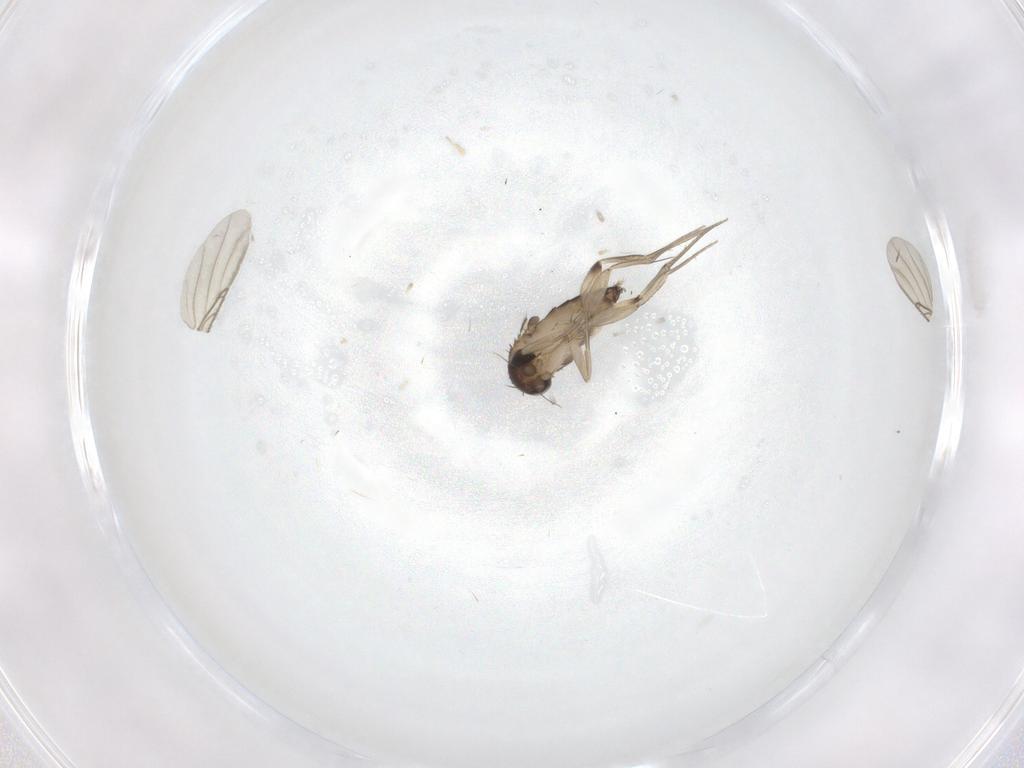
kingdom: Animalia
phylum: Arthropoda
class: Insecta
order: Diptera
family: Phoridae
